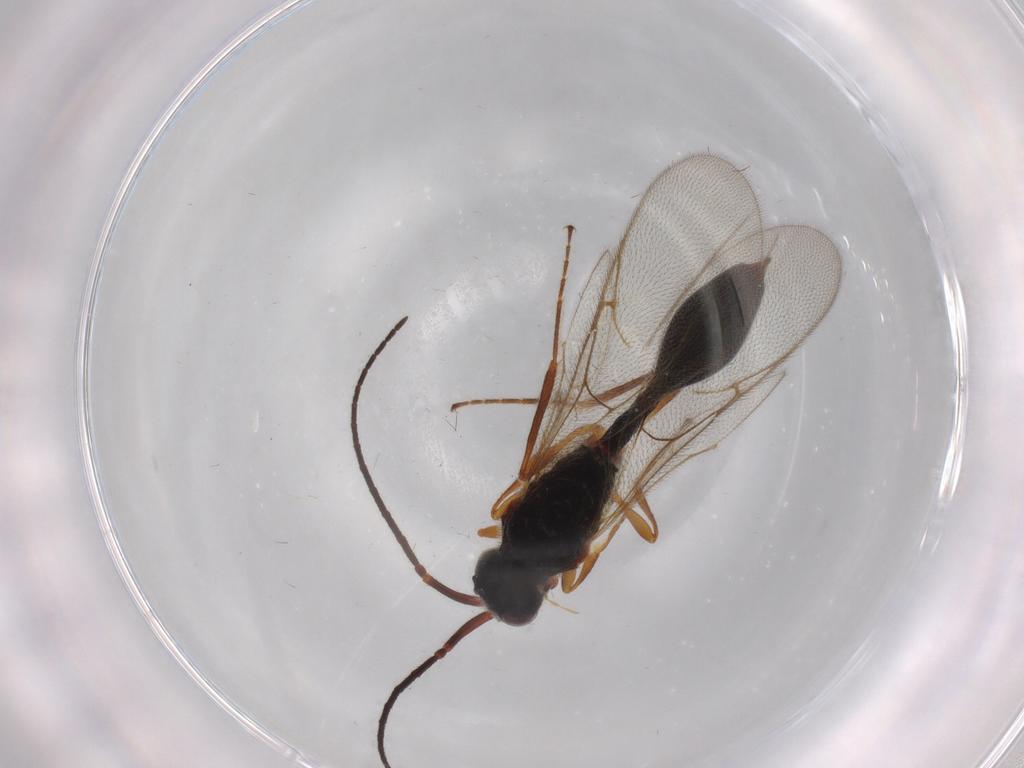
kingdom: Animalia
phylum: Arthropoda
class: Insecta
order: Hymenoptera
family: Diapriidae
